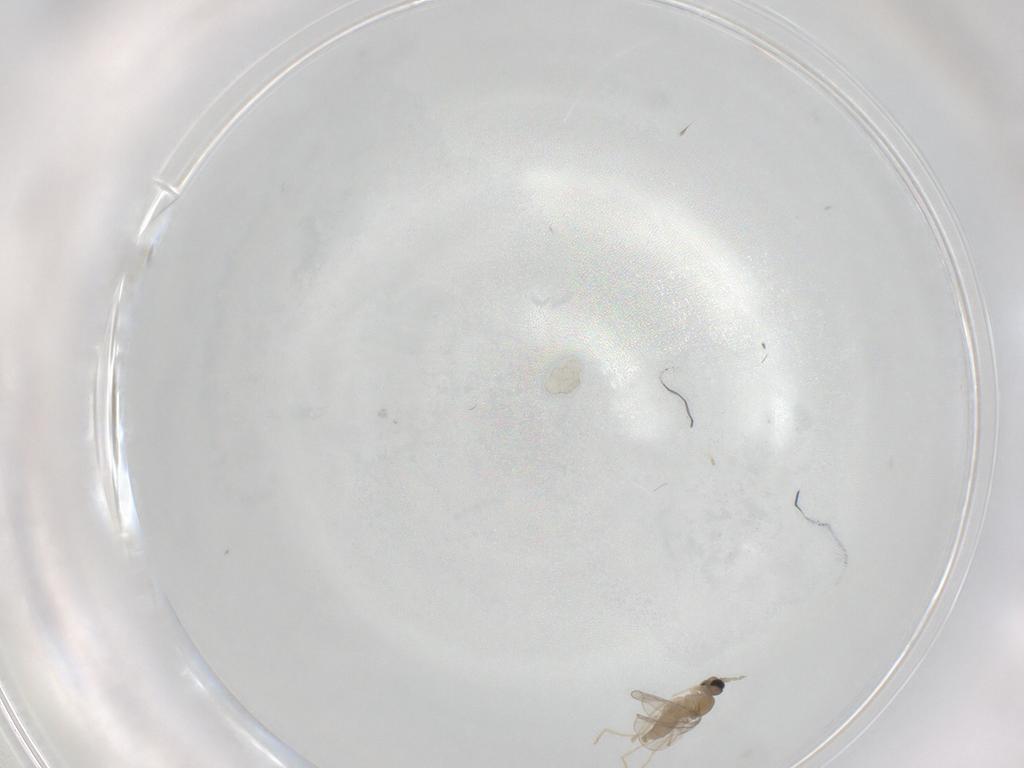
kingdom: Animalia
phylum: Arthropoda
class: Insecta
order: Diptera
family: Cecidomyiidae
